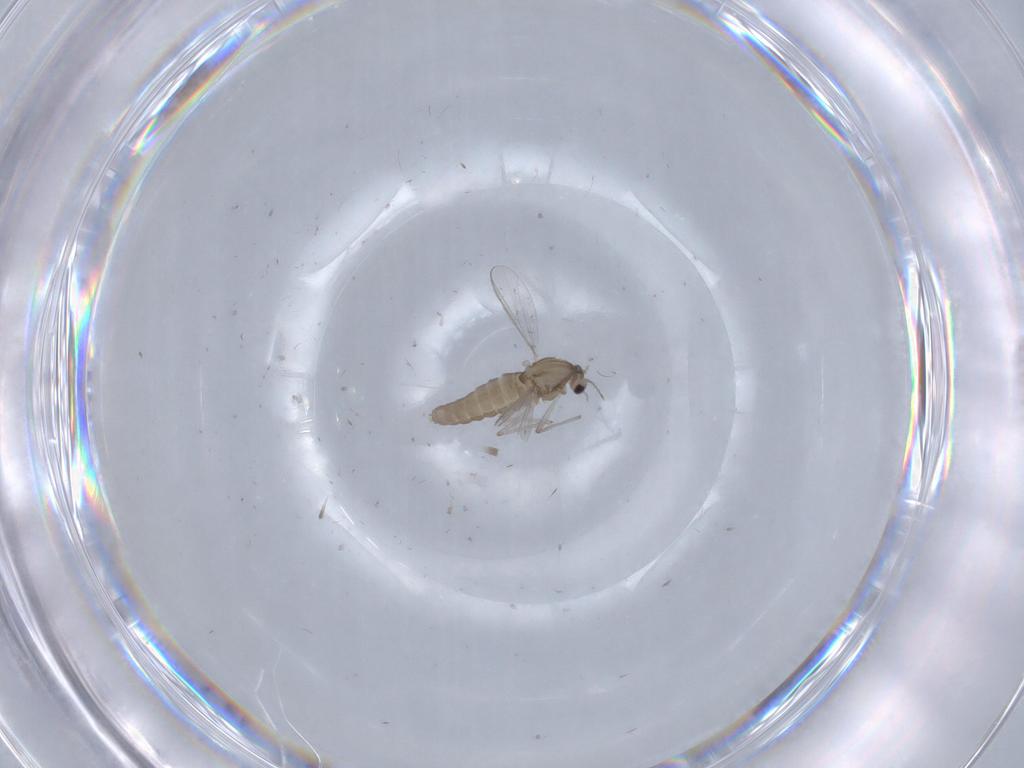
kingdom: Animalia
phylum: Arthropoda
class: Insecta
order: Diptera
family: Chironomidae
